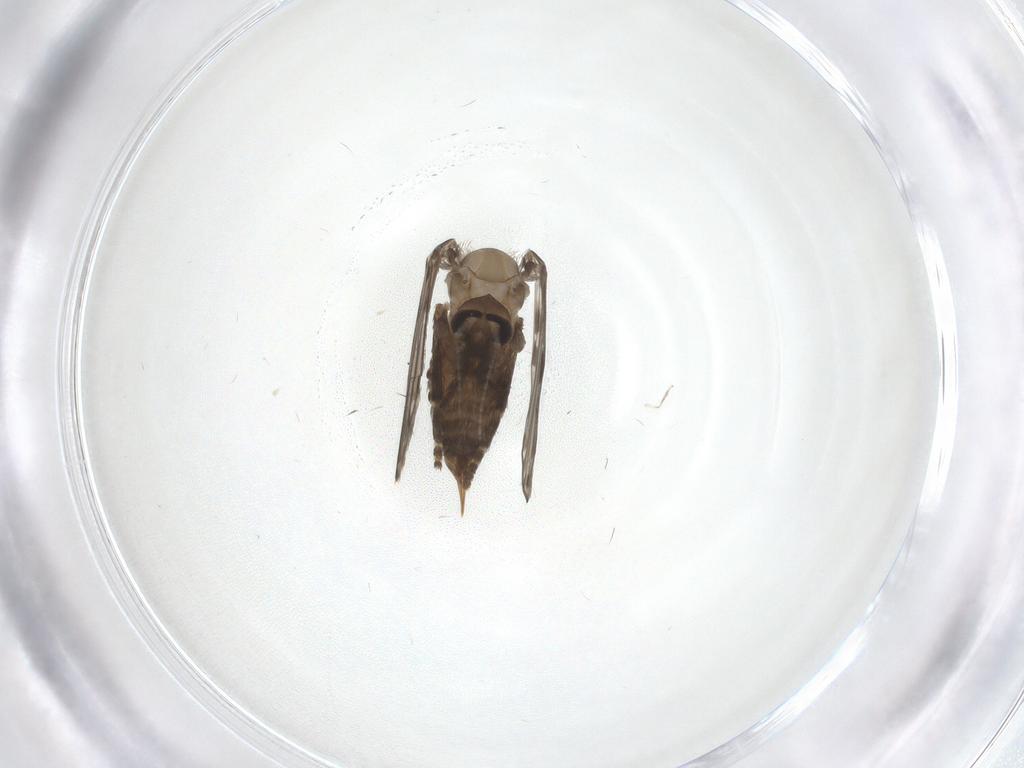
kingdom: Animalia
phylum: Arthropoda
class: Insecta
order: Diptera
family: Psychodidae
